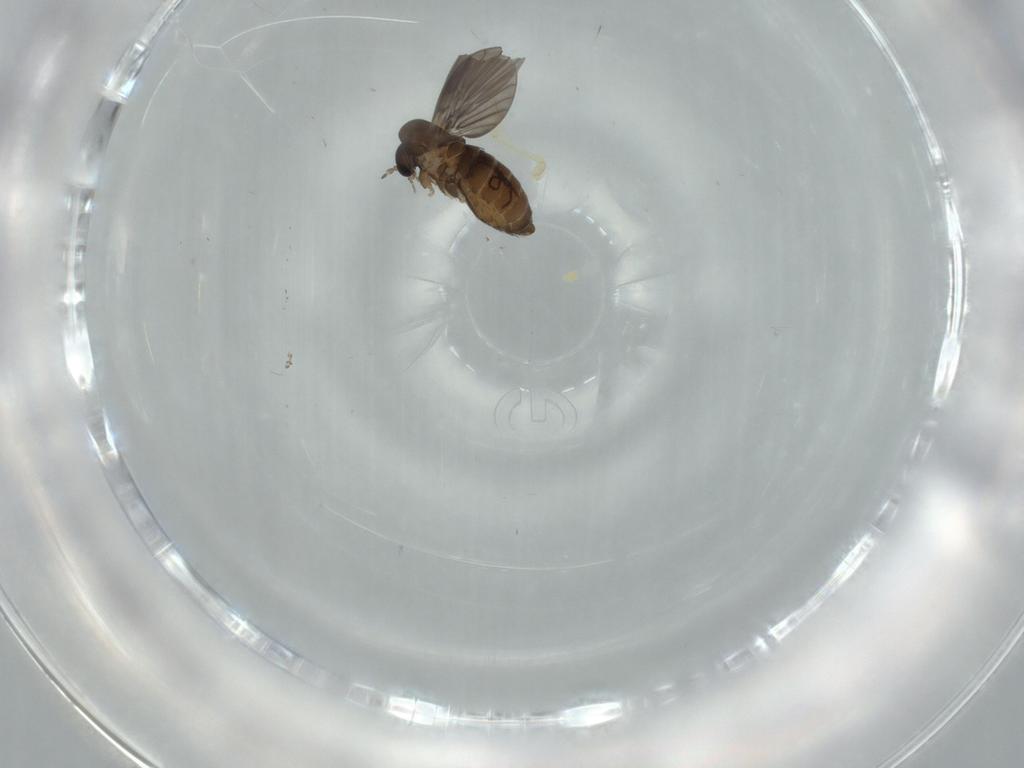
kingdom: Animalia
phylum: Arthropoda
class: Insecta
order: Diptera
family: Psychodidae
